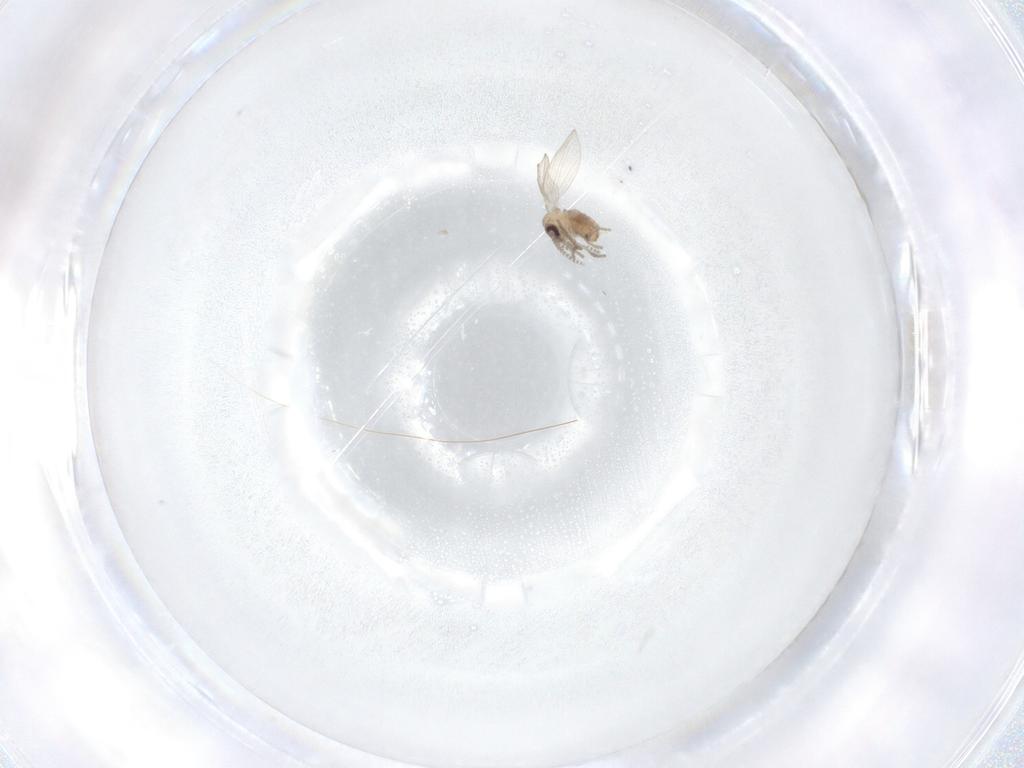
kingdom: Animalia
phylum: Arthropoda
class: Insecta
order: Diptera
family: Psychodidae
